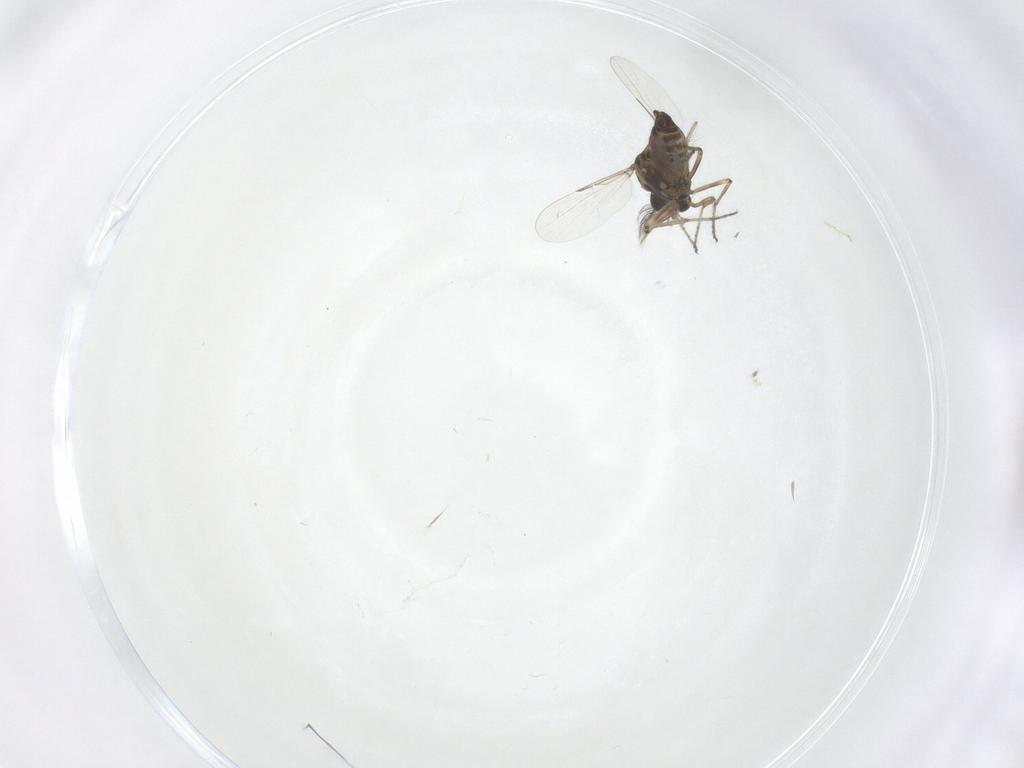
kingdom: Animalia
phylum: Arthropoda
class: Insecta
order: Diptera
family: Ceratopogonidae
